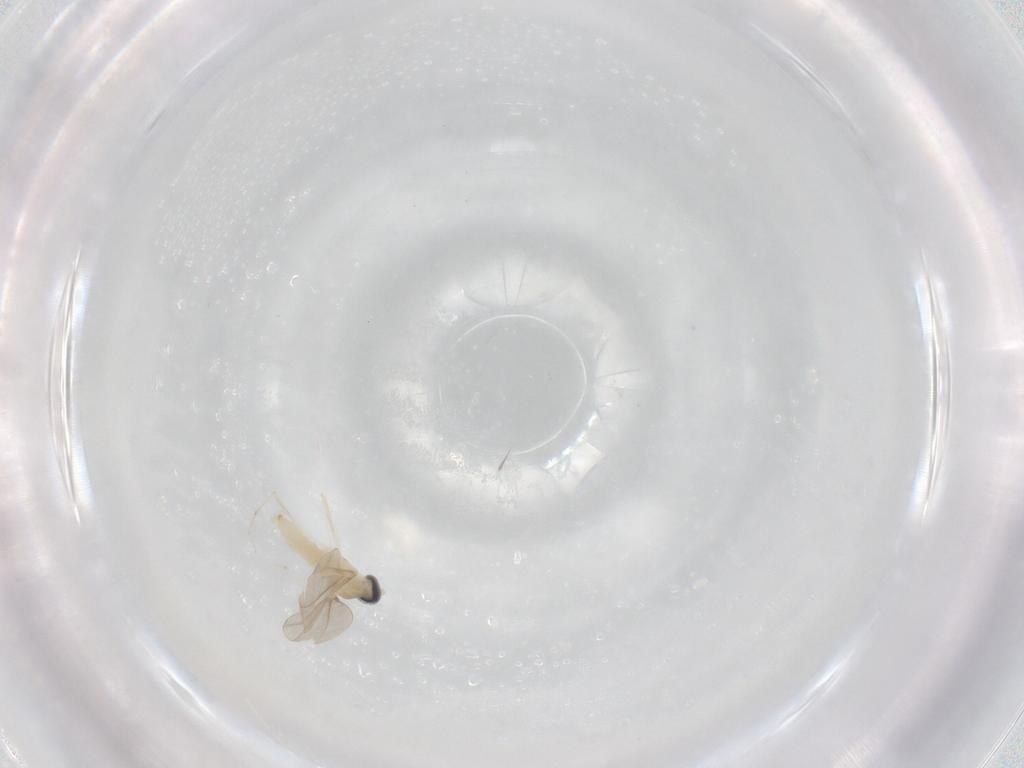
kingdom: Animalia
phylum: Arthropoda
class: Insecta
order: Diptera
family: Cecidomyiidae
